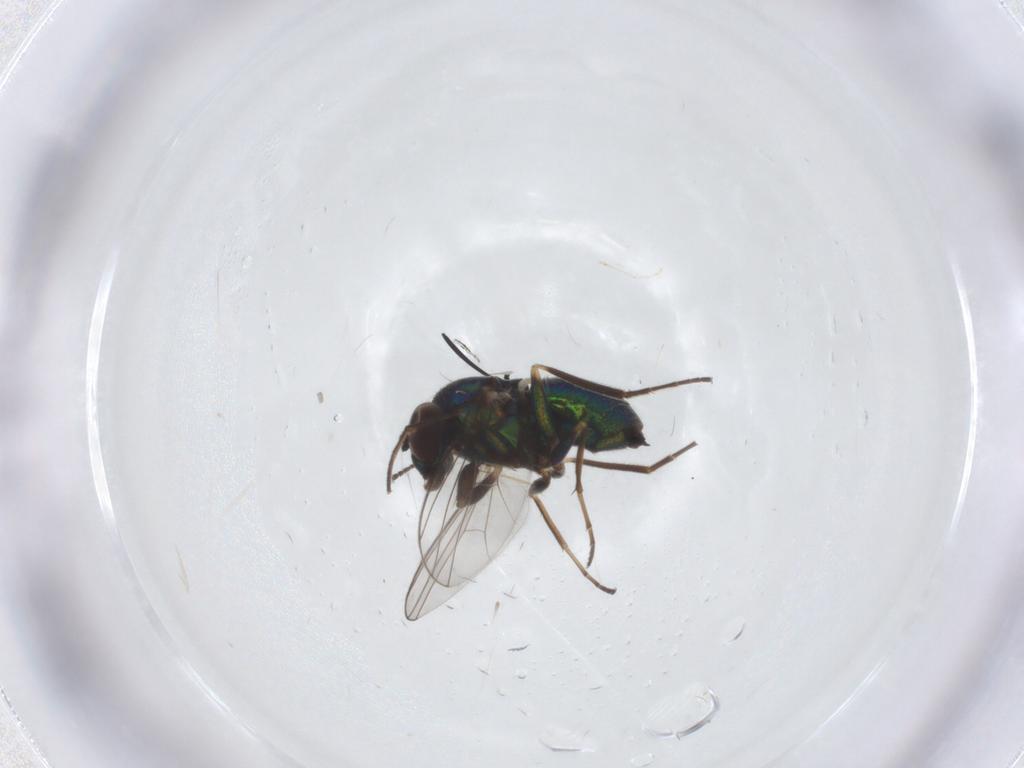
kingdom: Animalia
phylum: Arthropoda
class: Insecta
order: Diptera
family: Dolichopodidae
